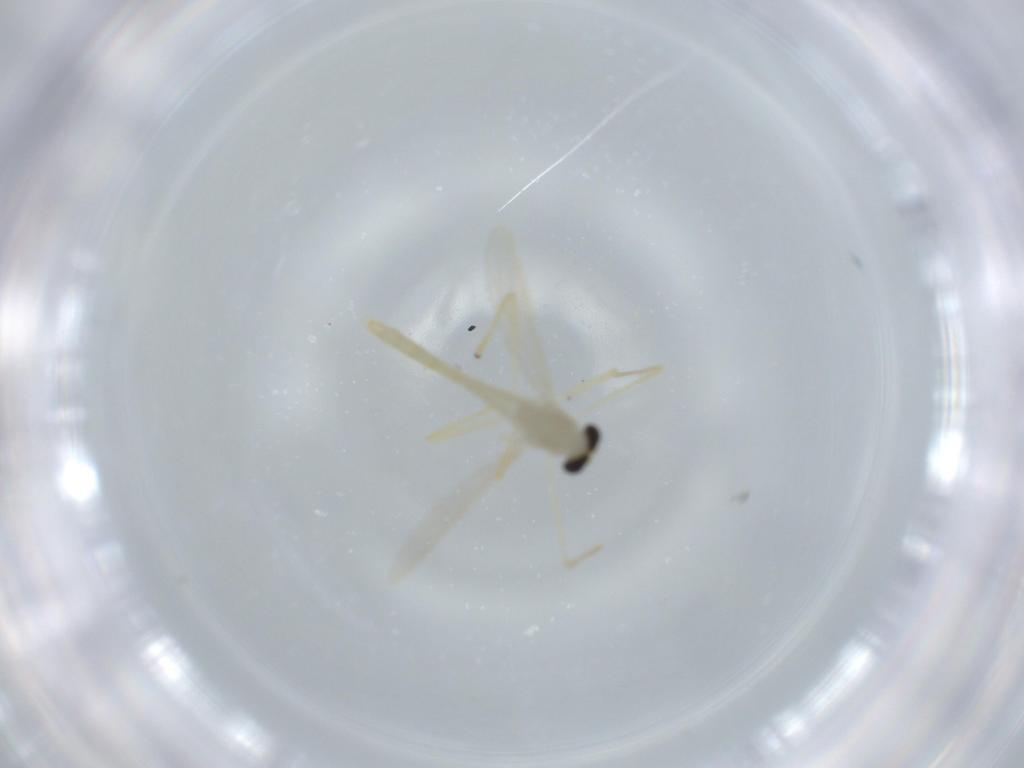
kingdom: Animalia
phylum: Arthropoda
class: Insecta
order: Diptera
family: Chironomidae
